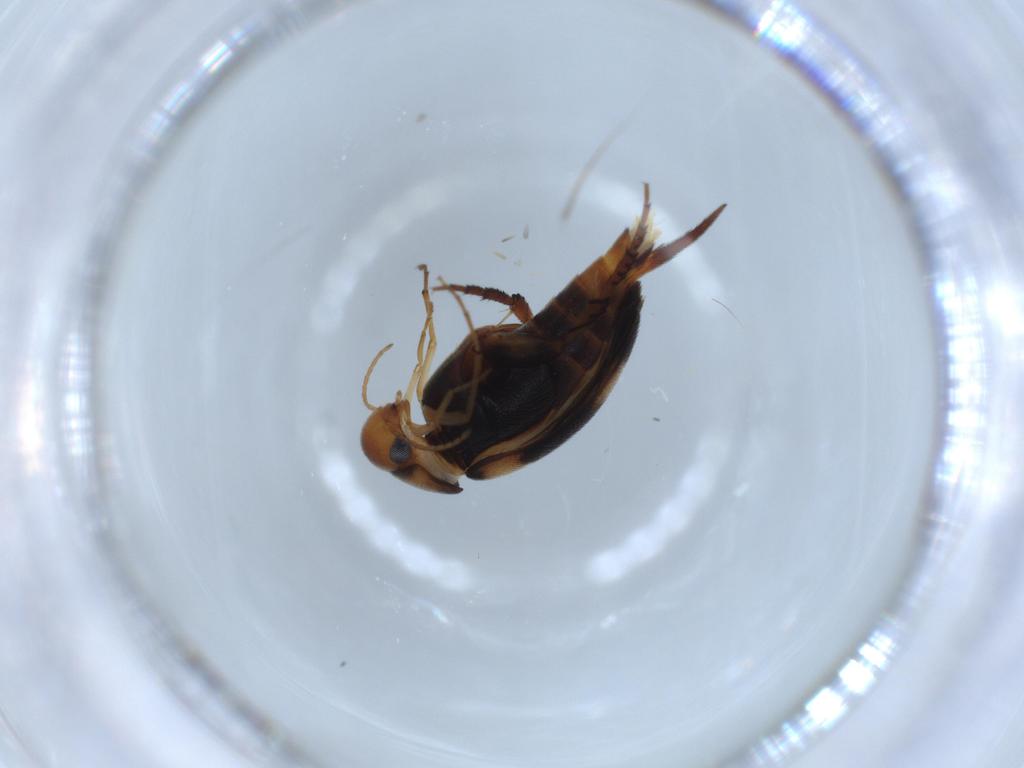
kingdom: Animalia
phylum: Arthropoda
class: Insecta
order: Coleoptera
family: Mordellidae
